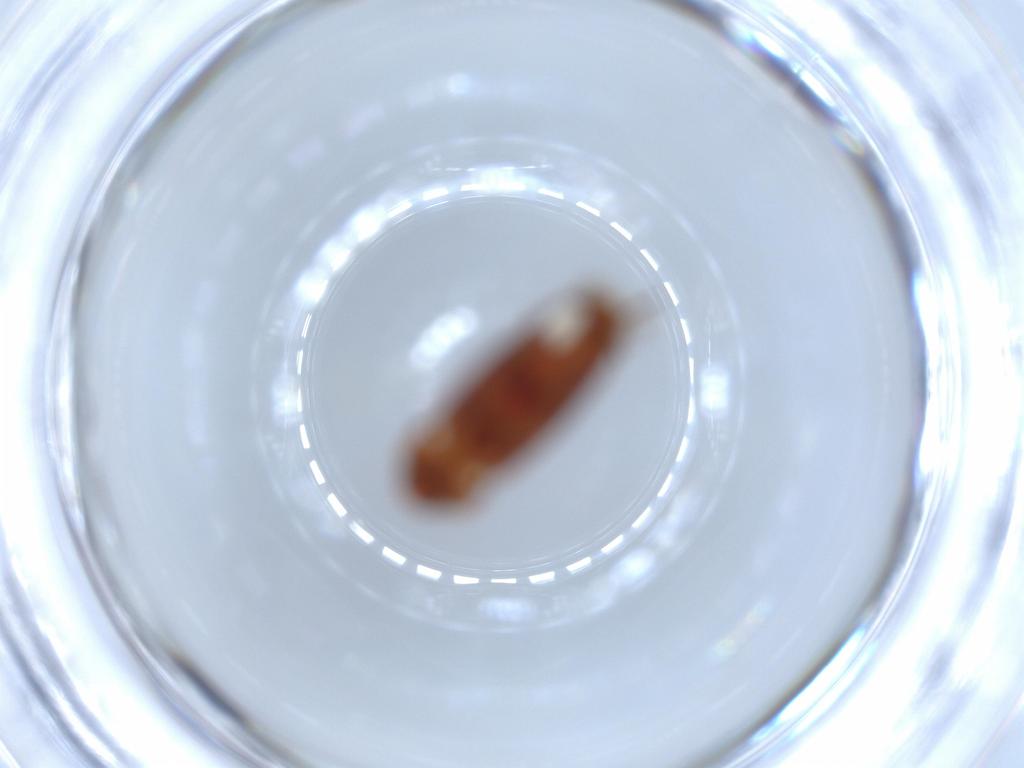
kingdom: Animalia
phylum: Arthropoda
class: Insecta
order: Coleoptera
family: Scraptiidae
